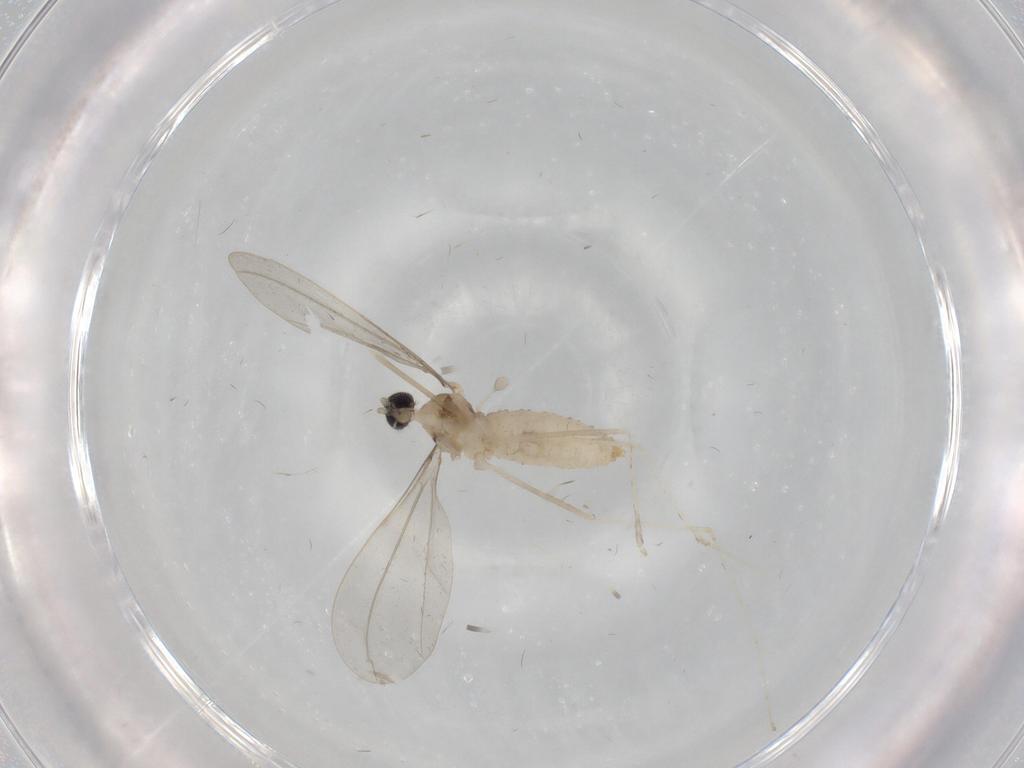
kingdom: Animalia
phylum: Arthropoda
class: Insecta
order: Diptera
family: Cecidomyiidae
